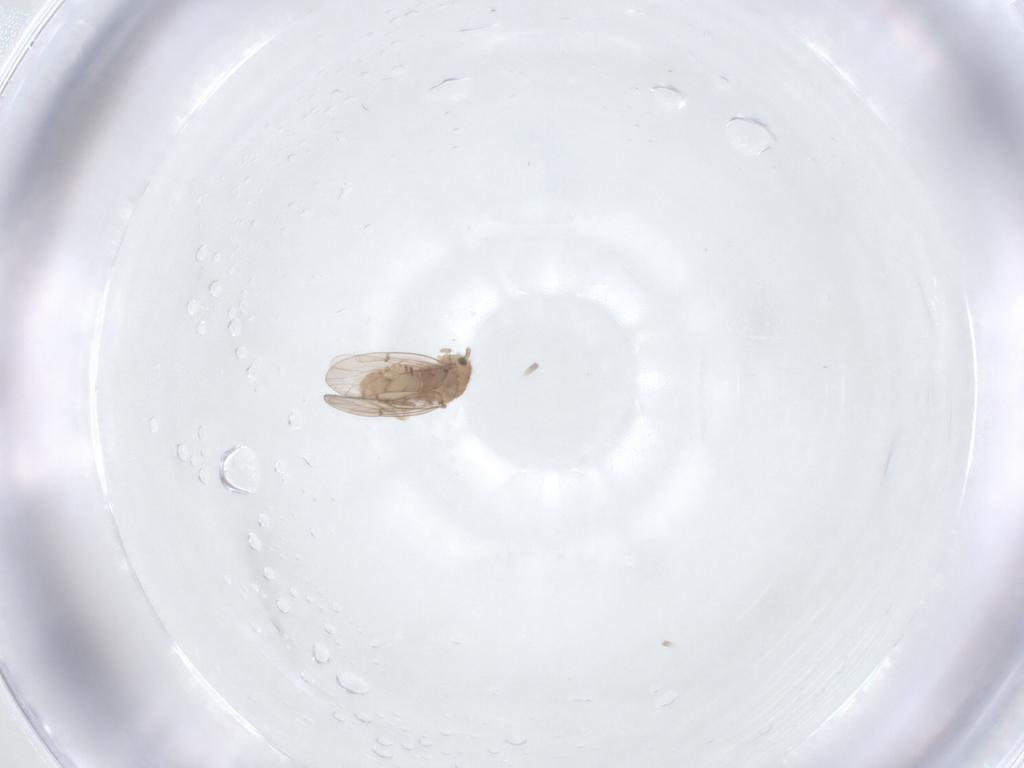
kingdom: Animalia
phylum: Arthropoda
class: Insecta
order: Psocodea
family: Ectopsocidae
